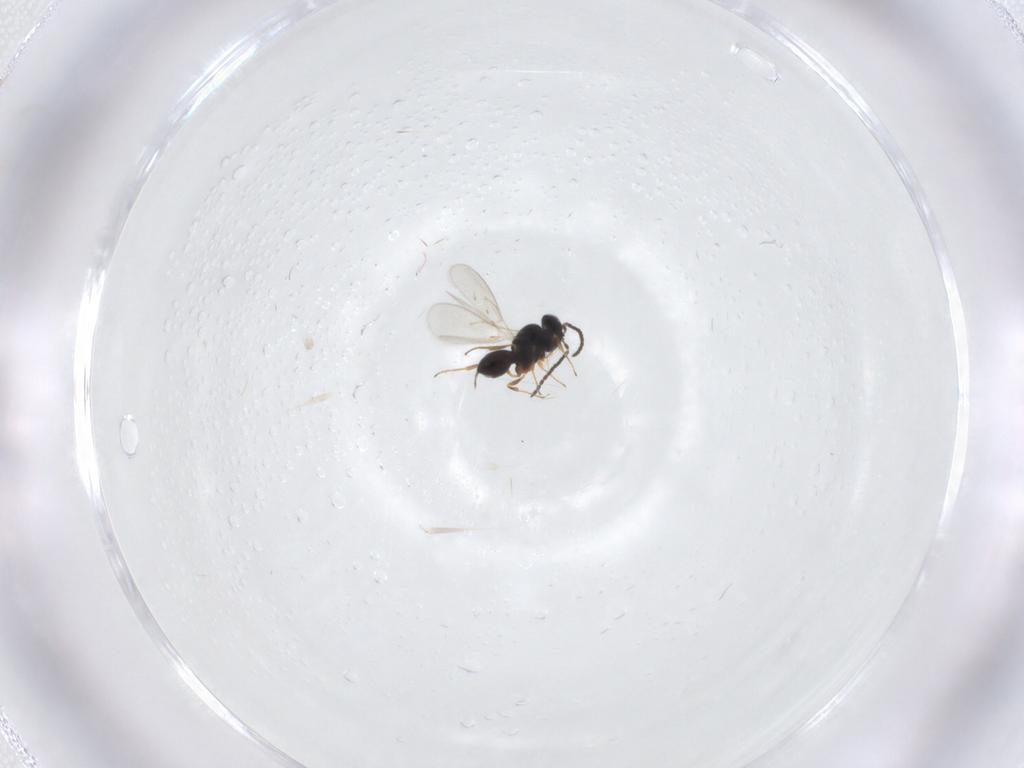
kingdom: Animalia
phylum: Arthropoda
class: Insecta
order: Hymenoptera
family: Scelionidae
